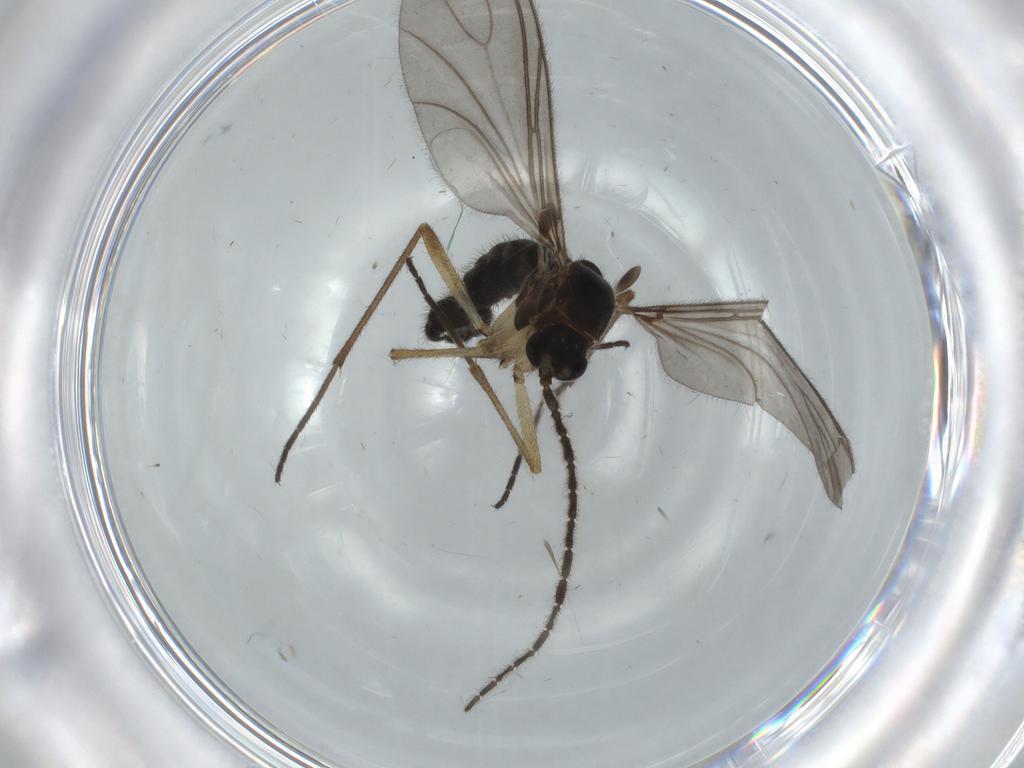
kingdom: Animalia
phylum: Arthropoda
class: Insecta
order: Diptera
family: Sciaridae
